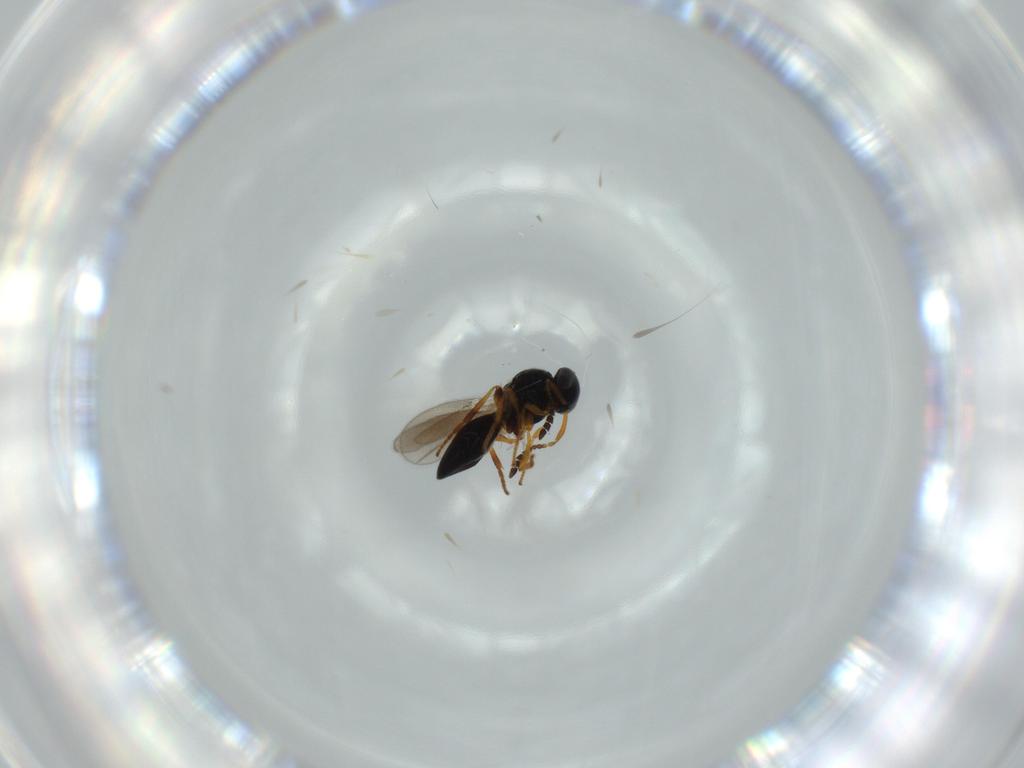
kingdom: Animalia
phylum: Arthropoda
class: Insecta
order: Hymenoptera
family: Platygastridae
